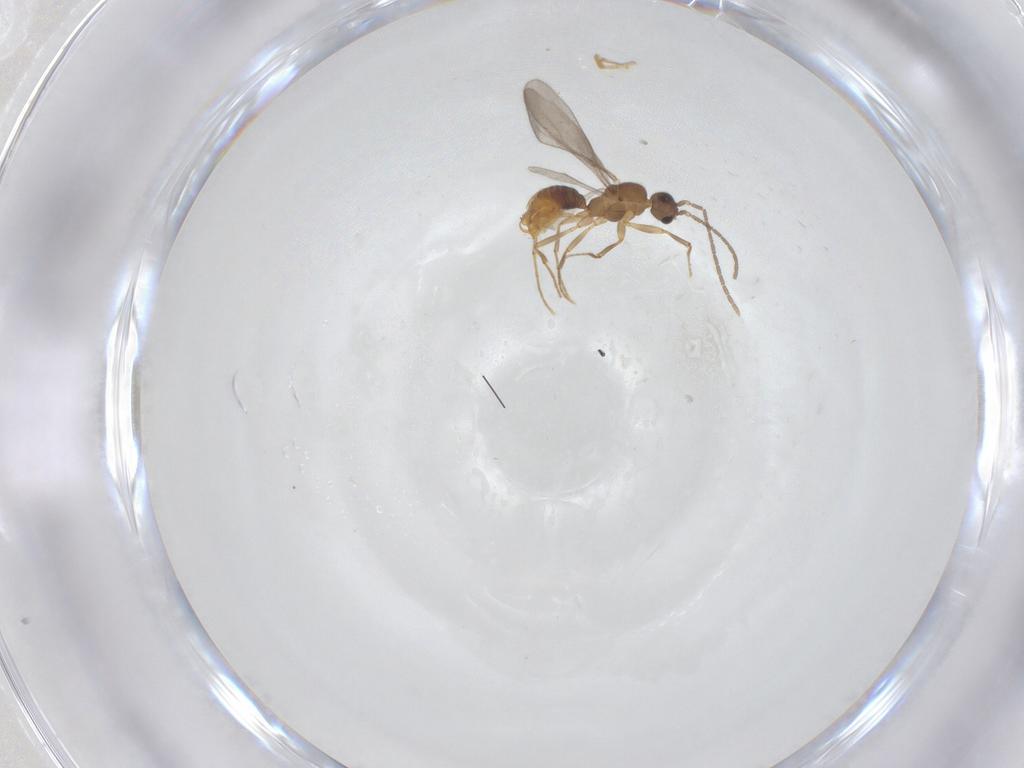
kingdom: Animalia
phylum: Arthropoda
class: Insecta
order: Hymenoptera
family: Formicidae
